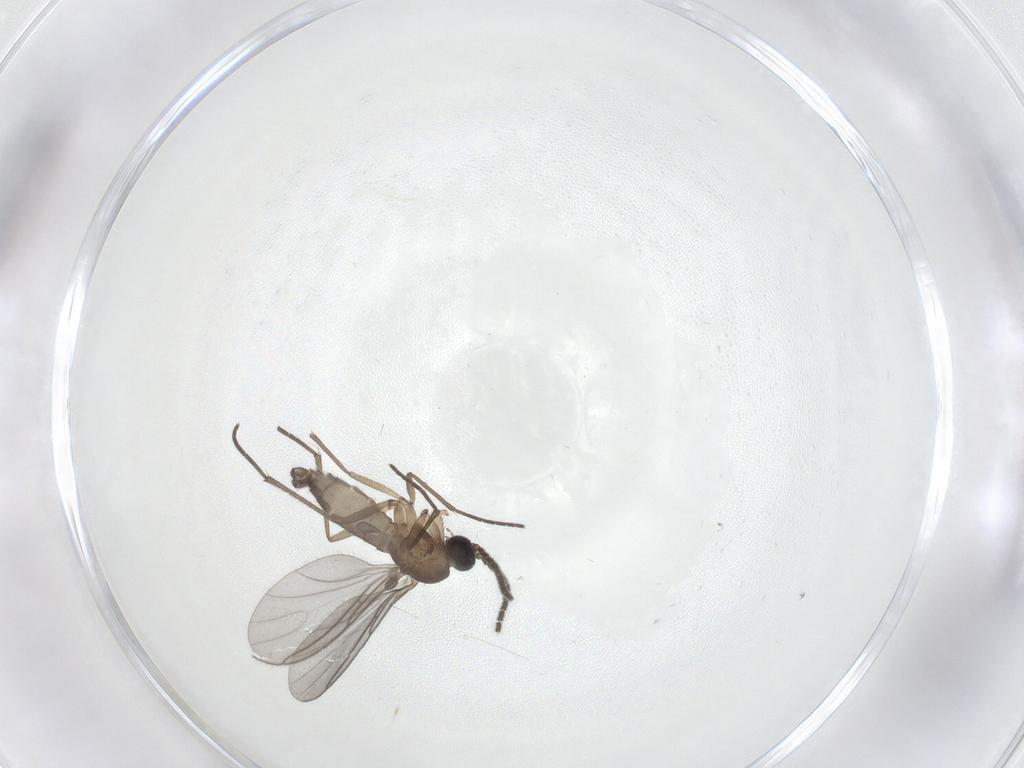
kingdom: Animalia
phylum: Arthropoda
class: Insecta
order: Diptera
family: Sciaridae
